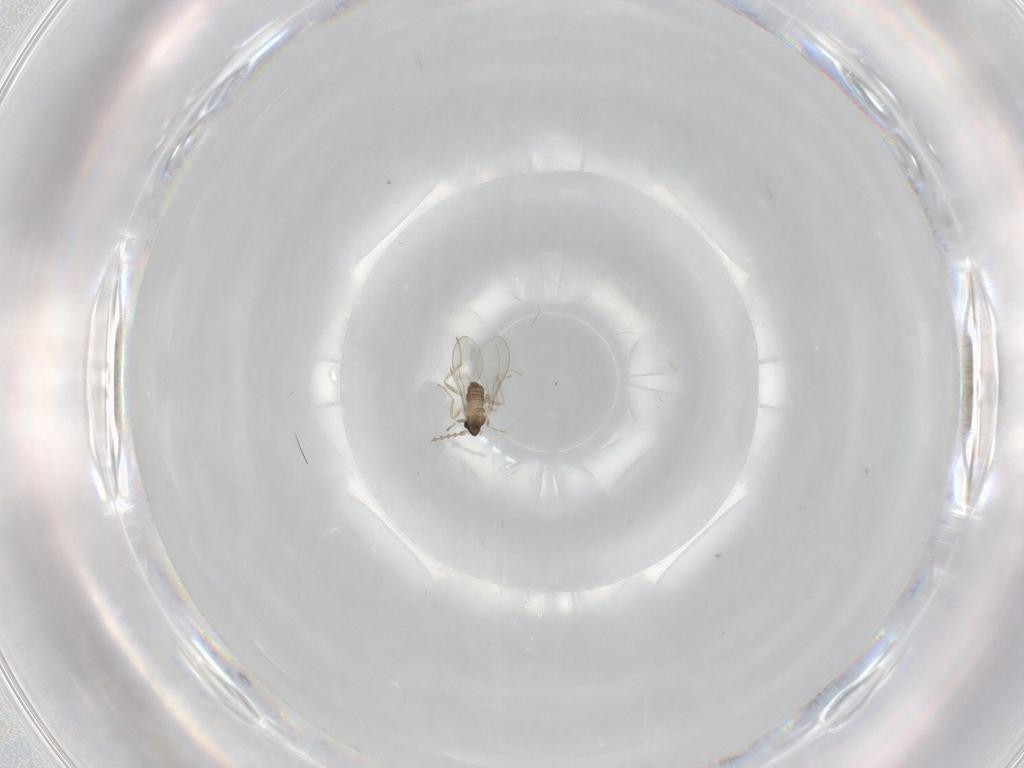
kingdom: Animalia
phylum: Arthropoda
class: Insecta
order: Diptera
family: Cecidomyiidae
